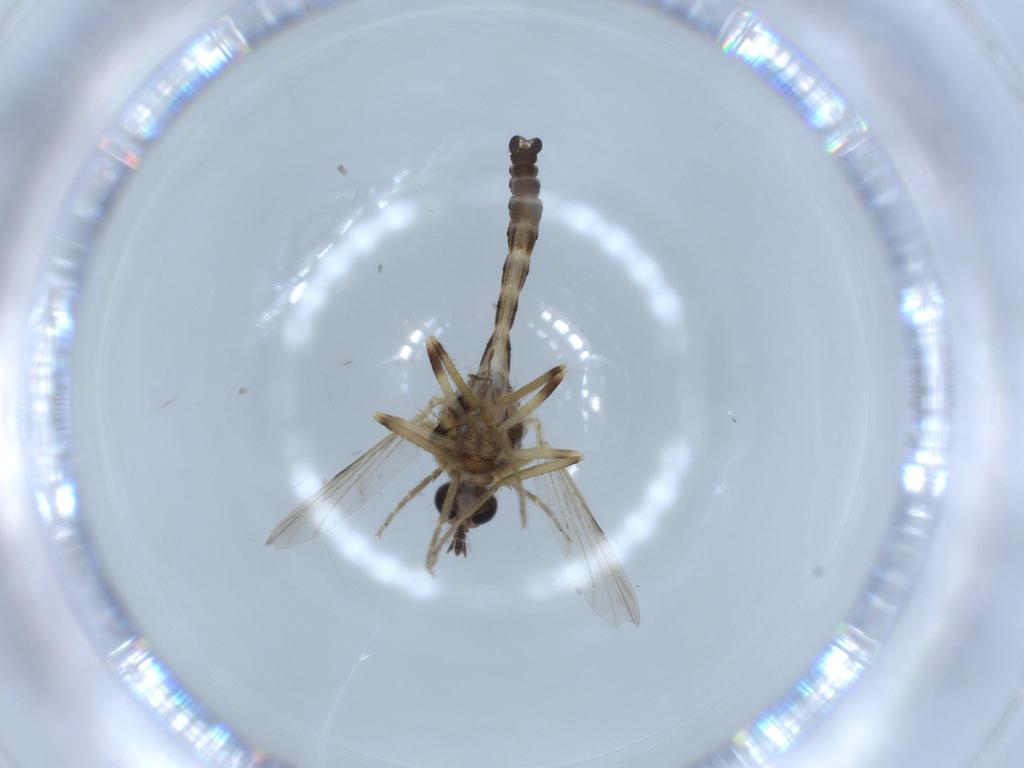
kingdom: Animalia
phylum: Arthropoda
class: Insecta
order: Diptera
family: Ceratopogonidae
